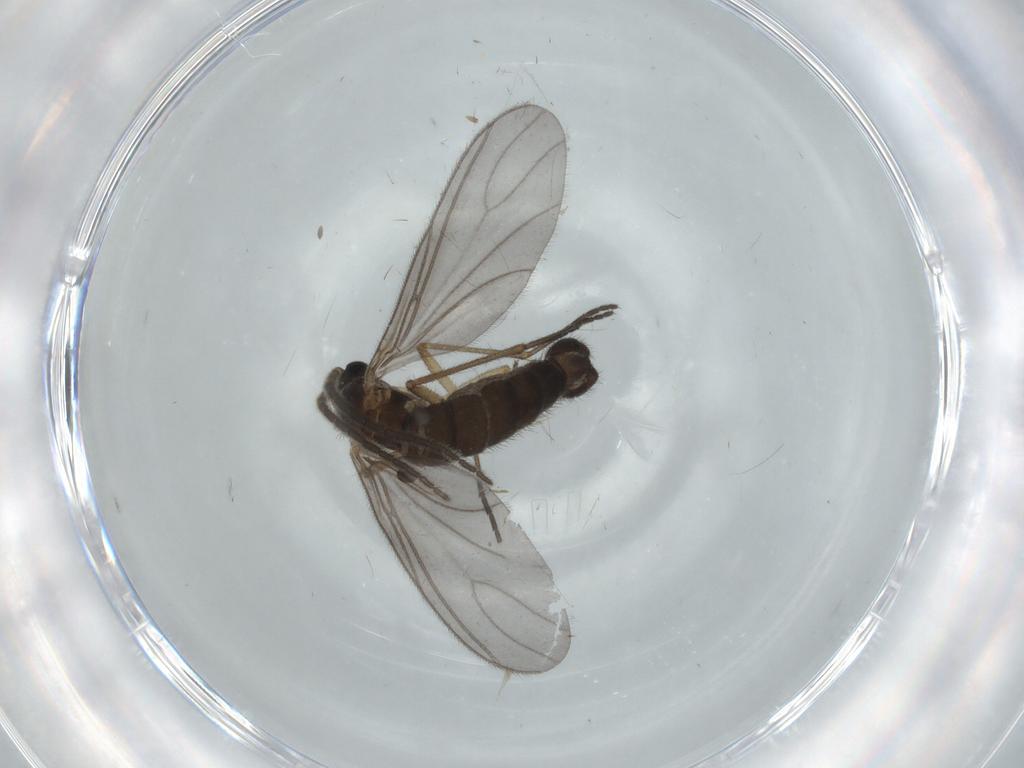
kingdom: Animalia
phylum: Arthropoda
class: Insecta
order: Diptera
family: Sciaridae
